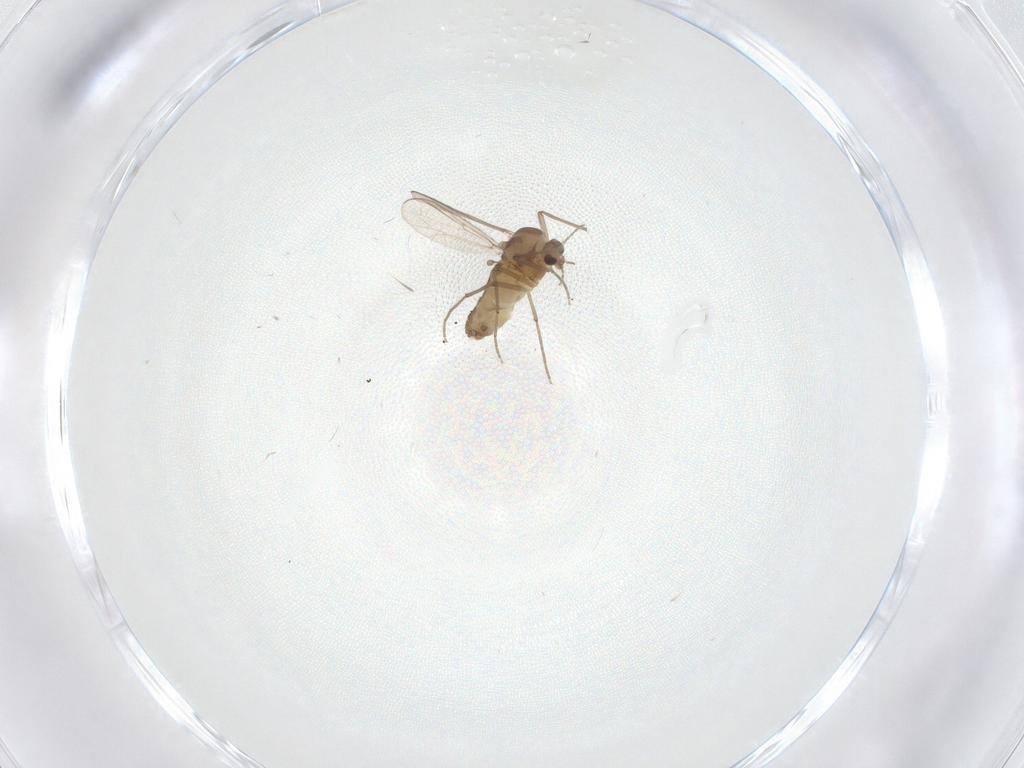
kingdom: Animalia
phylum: Arthropoda
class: Insecta
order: Diptera
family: Chironomidae
